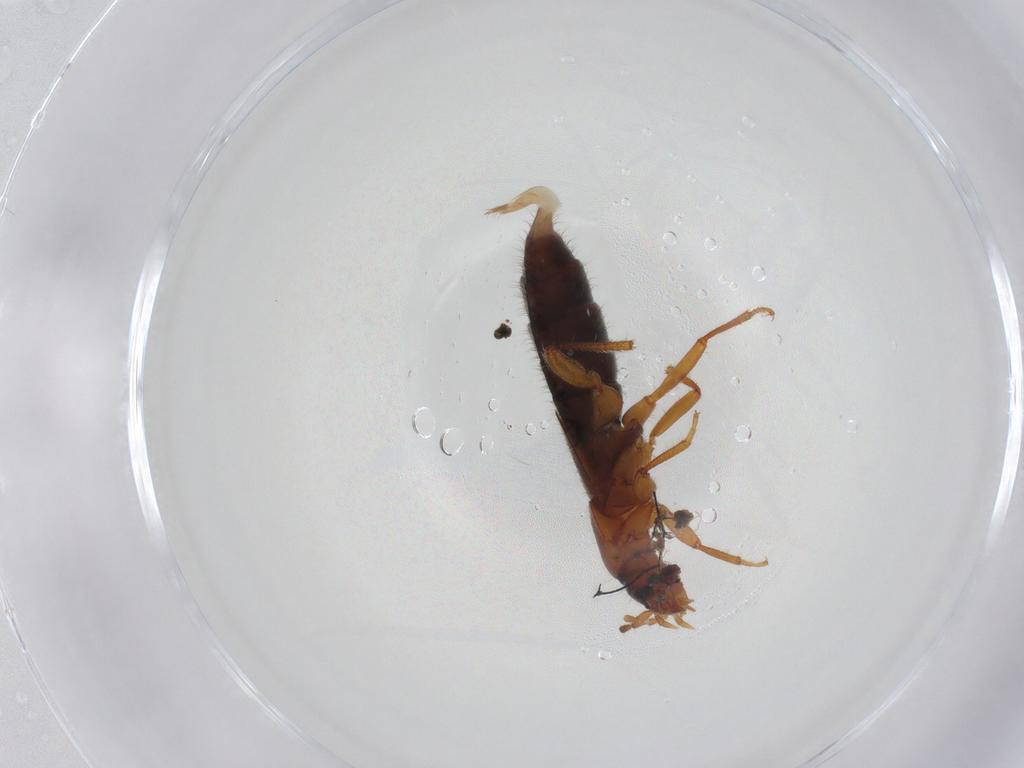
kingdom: Animalia
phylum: Arthropoda
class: Insecta
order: Coleoptera
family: Staphylinidae
